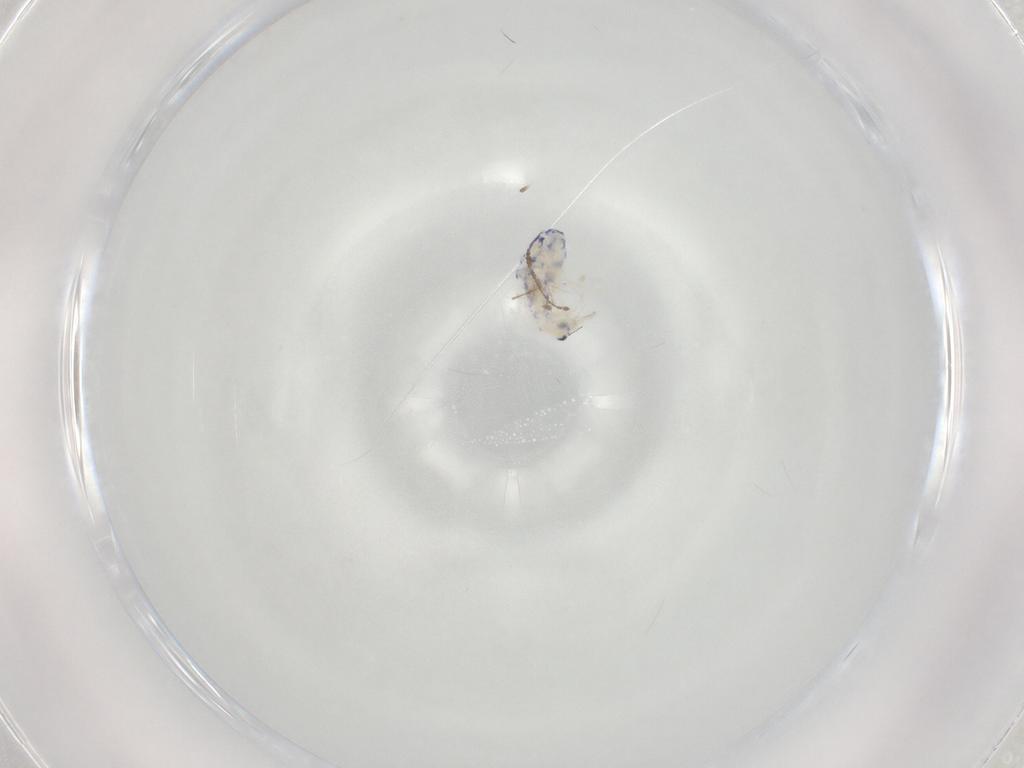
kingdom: Animalia
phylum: Arthropoda
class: Collembola
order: Entomobryomorpha
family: Entomobryidae
